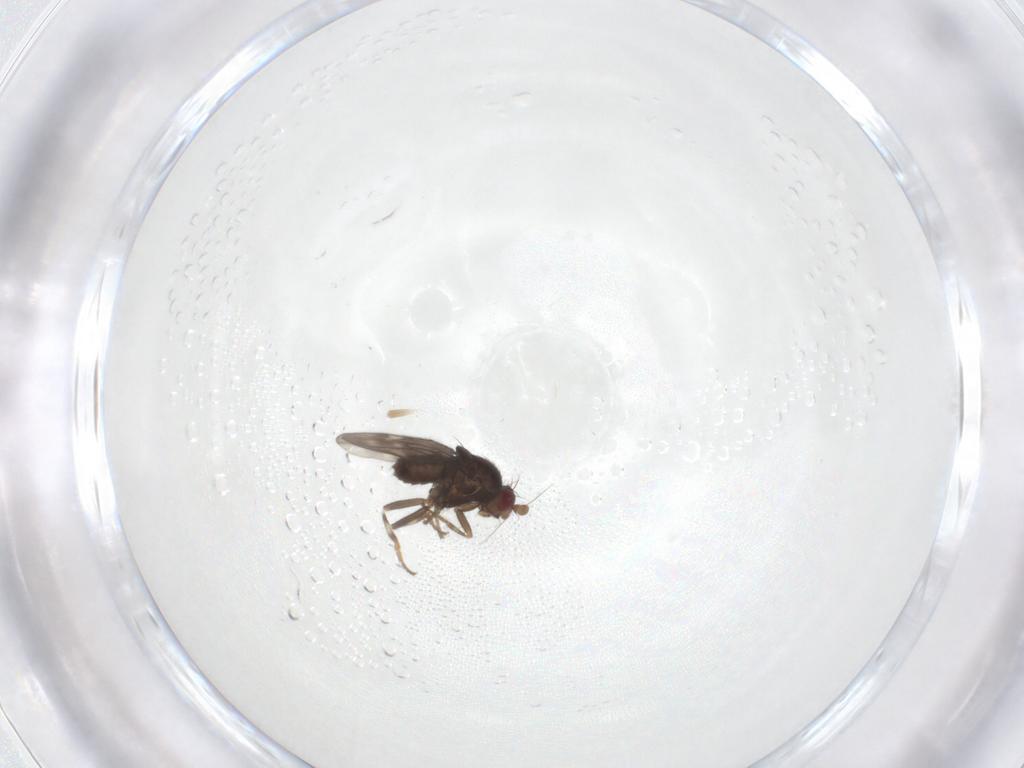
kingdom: Animalia
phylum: Arthropoda
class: Insecta
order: Diptera
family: Sphaeroceridae
